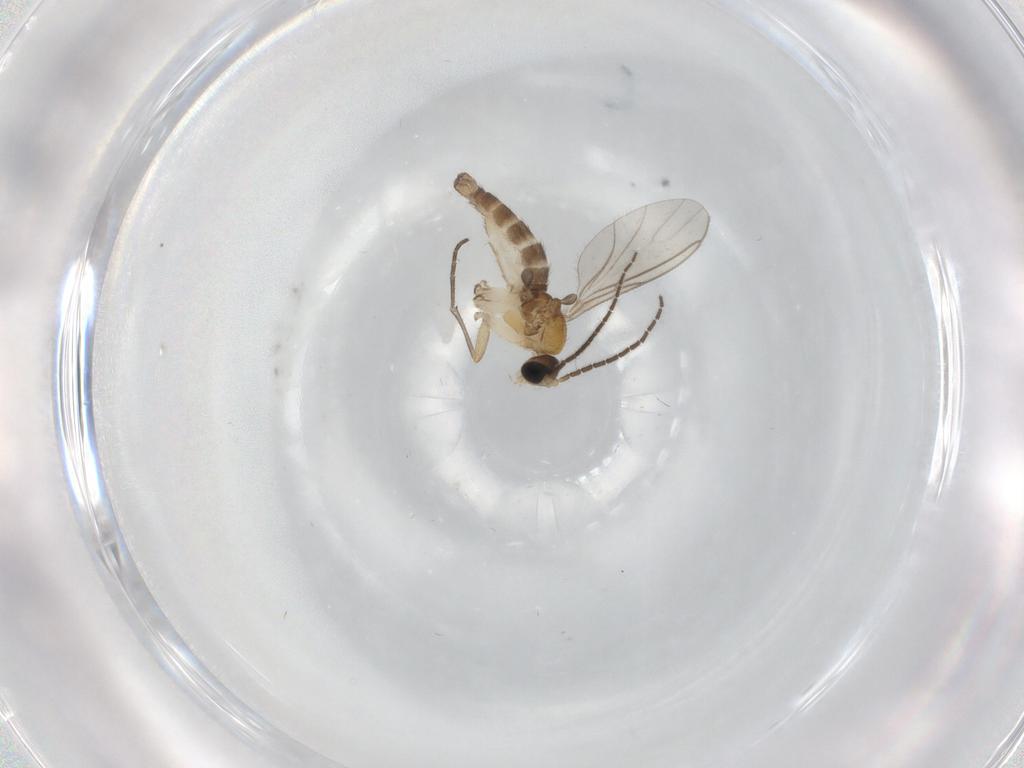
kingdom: Animalia
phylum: Arthropoda
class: Insecta
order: Diptera
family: Sciaridae
